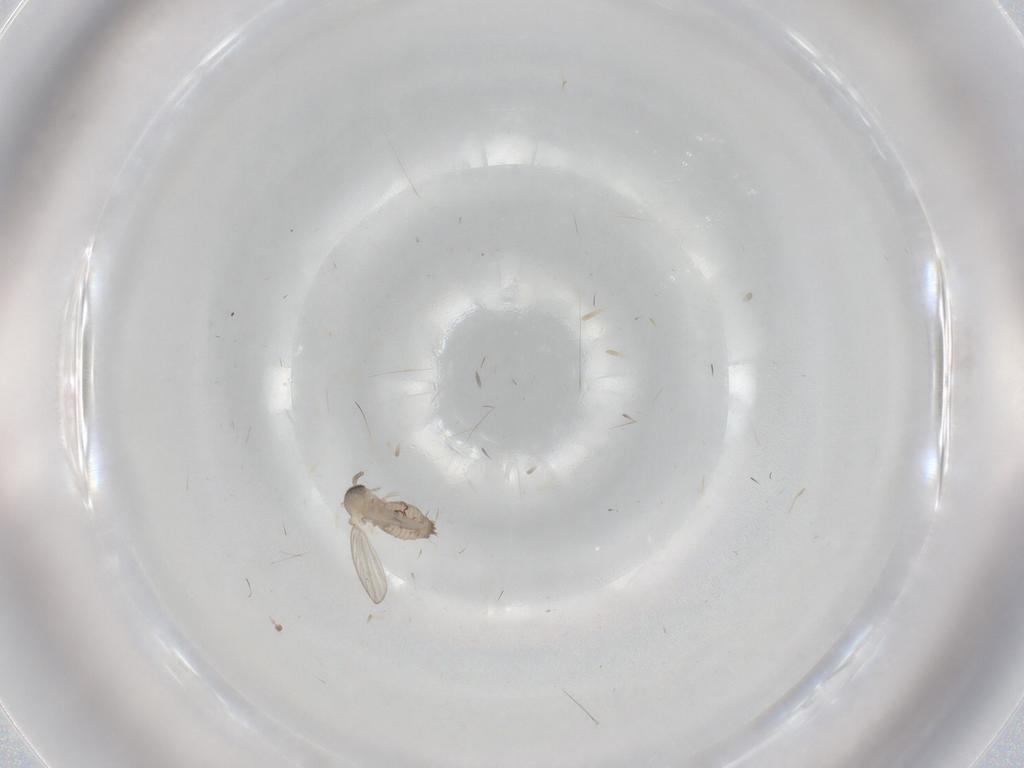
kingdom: Animalia
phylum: Arthropoda
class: Insecta
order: Diptera
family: Psychodidae
